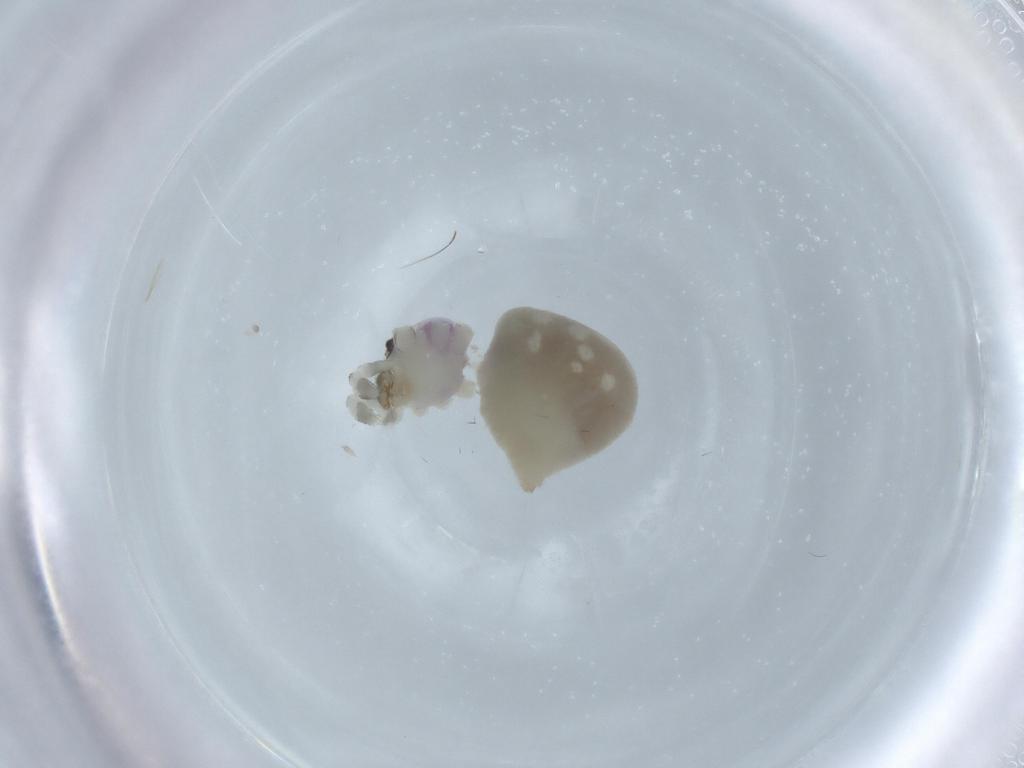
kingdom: Animalia
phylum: Arthropoda
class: Arachnida
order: Araneae
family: Pholcidae
